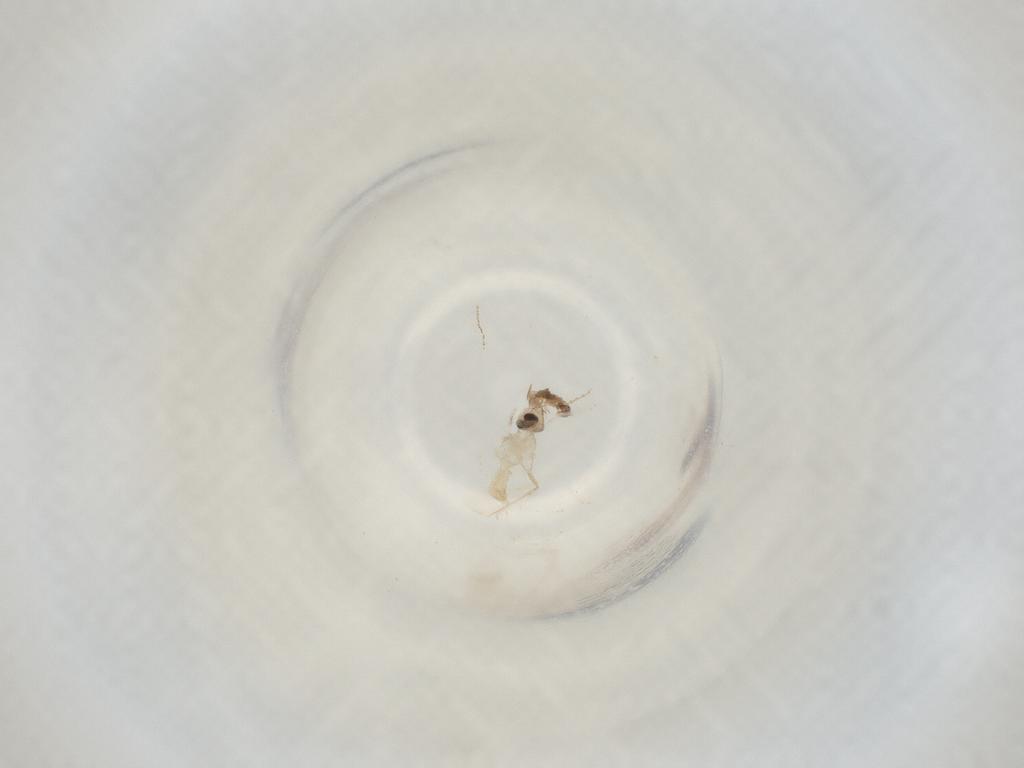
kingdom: Animalia
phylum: Arthropoda
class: Insecta
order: Diptera
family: Cecidomyiidae
